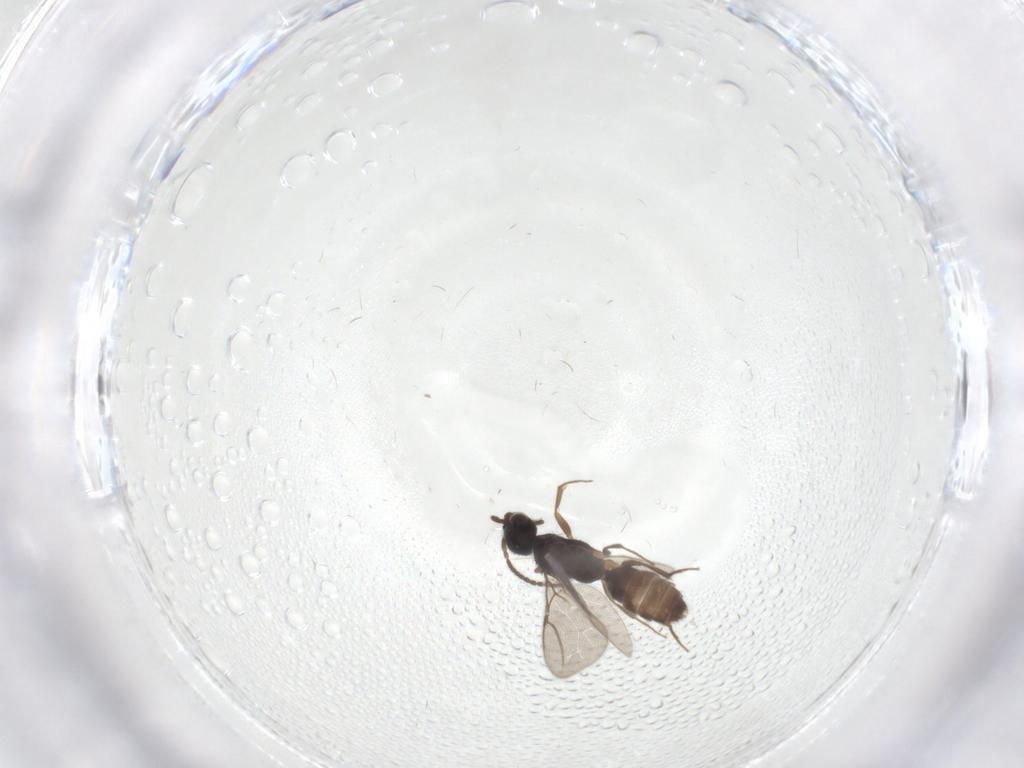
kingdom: Animalia
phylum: Arthropoda
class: Insecta
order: Hymenoptera
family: Bethylidae
